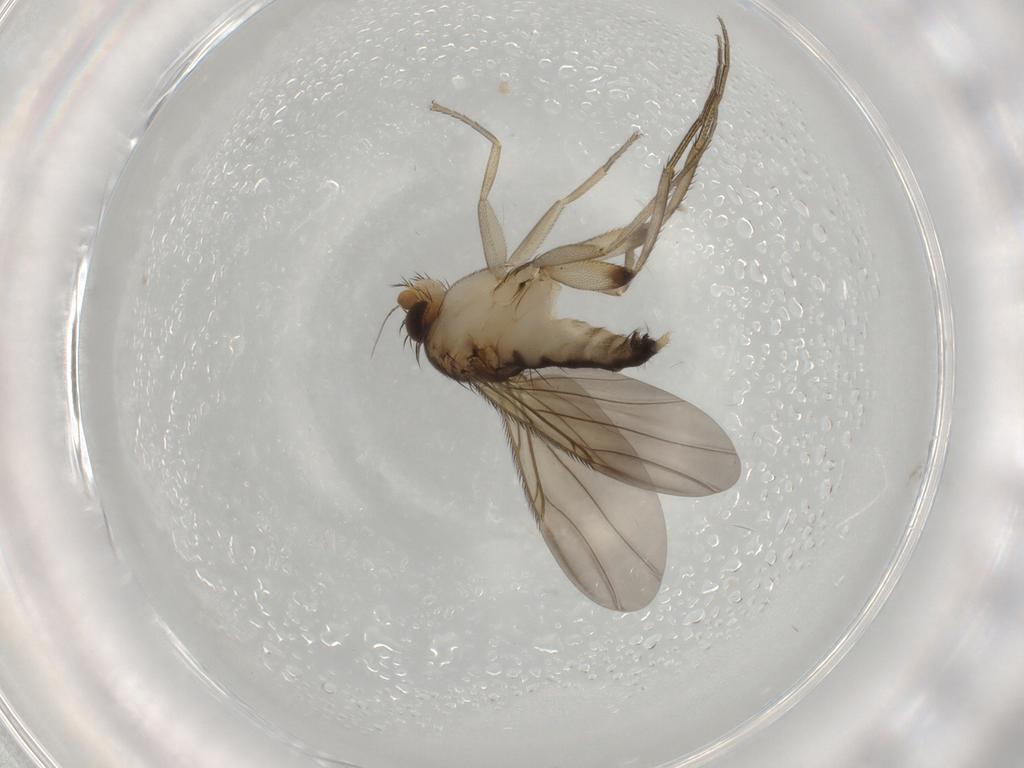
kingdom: Animalia
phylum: Arthropoda
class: Insecta
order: Diptera
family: Phoridae
